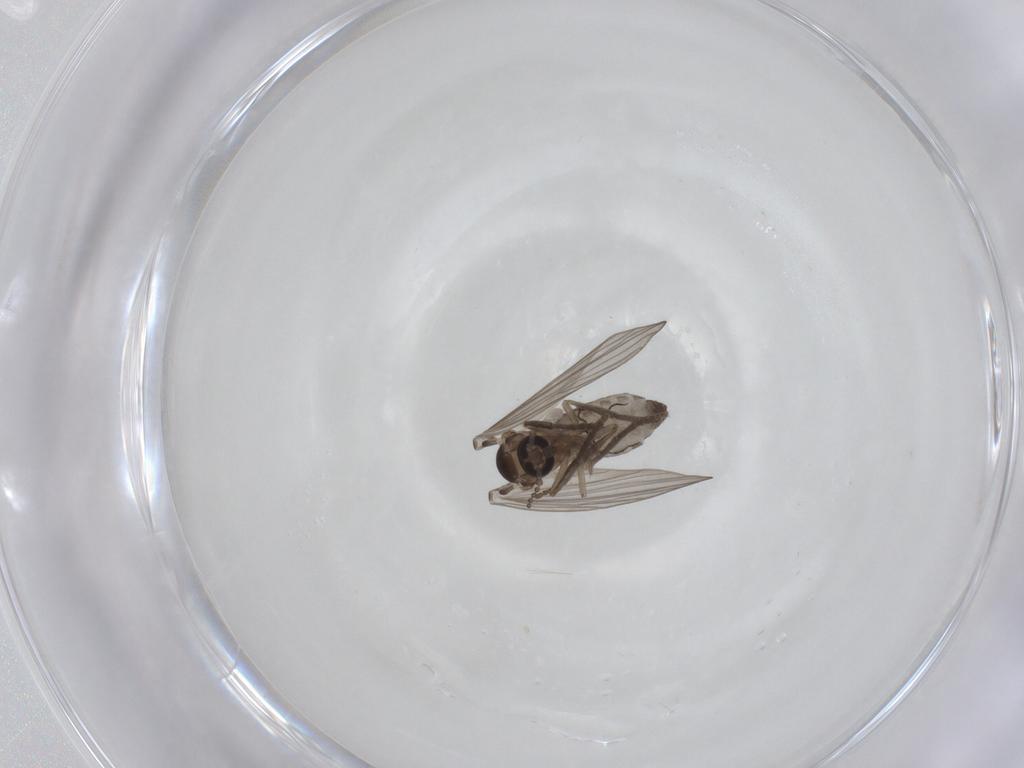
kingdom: Animalia
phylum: Arthropoda
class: Insecta
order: Diptera
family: Psychodidae
